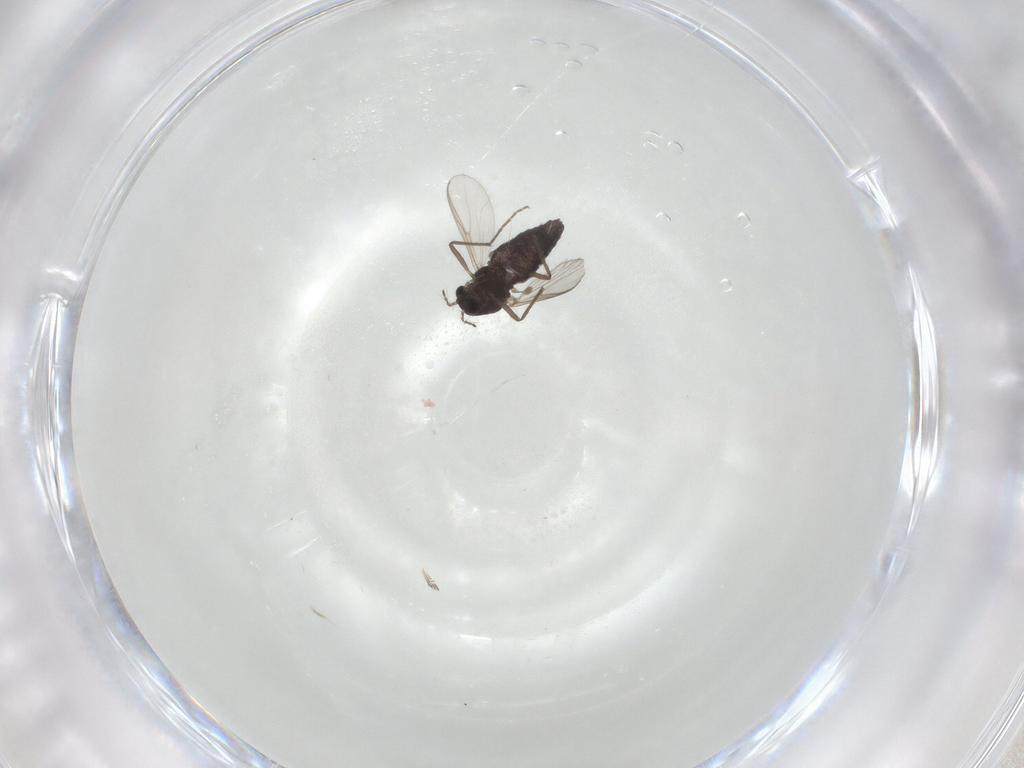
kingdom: Animalia
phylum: Arthropoda
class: Insecta
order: Diptera
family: Chironomidae
